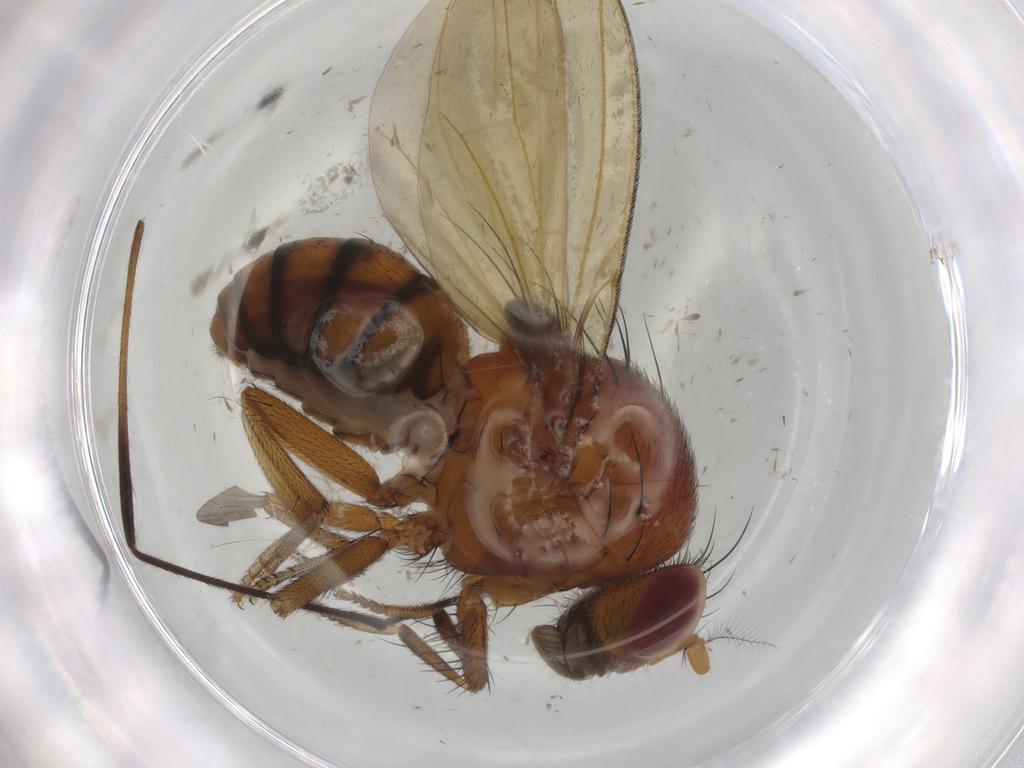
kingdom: Animalia
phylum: Arthropoda
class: Insecta
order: Diptera
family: Limoniidae
